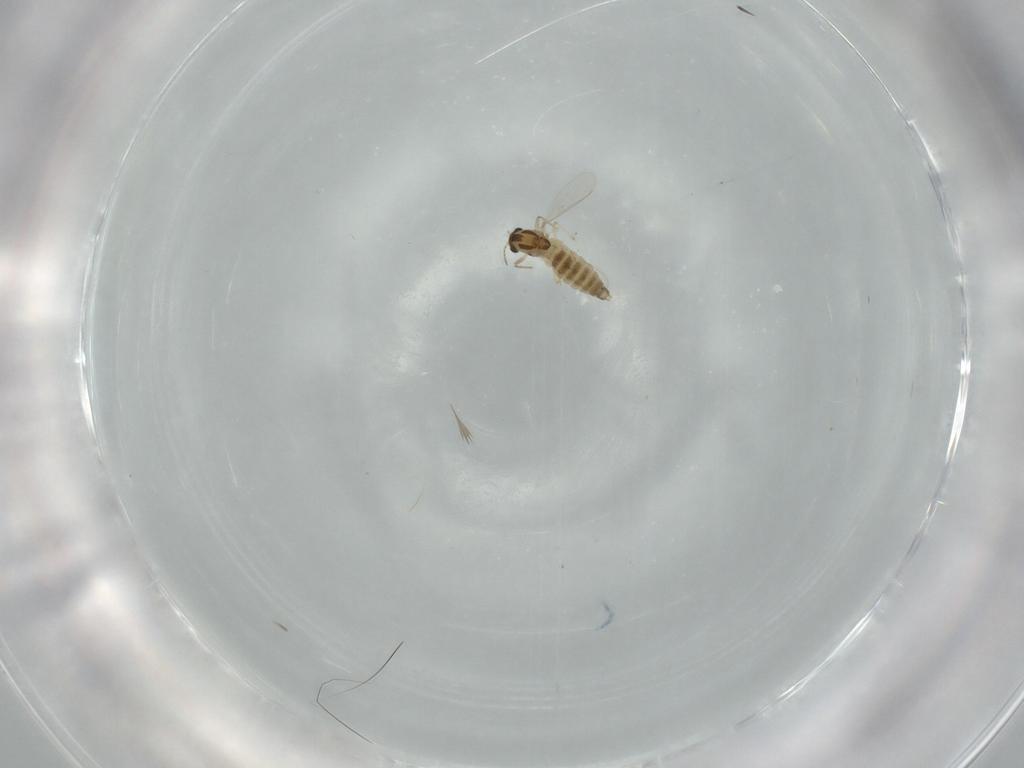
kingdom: Animalia
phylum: Arthropoda
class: Insecta
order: Diptera
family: Chironomidae
